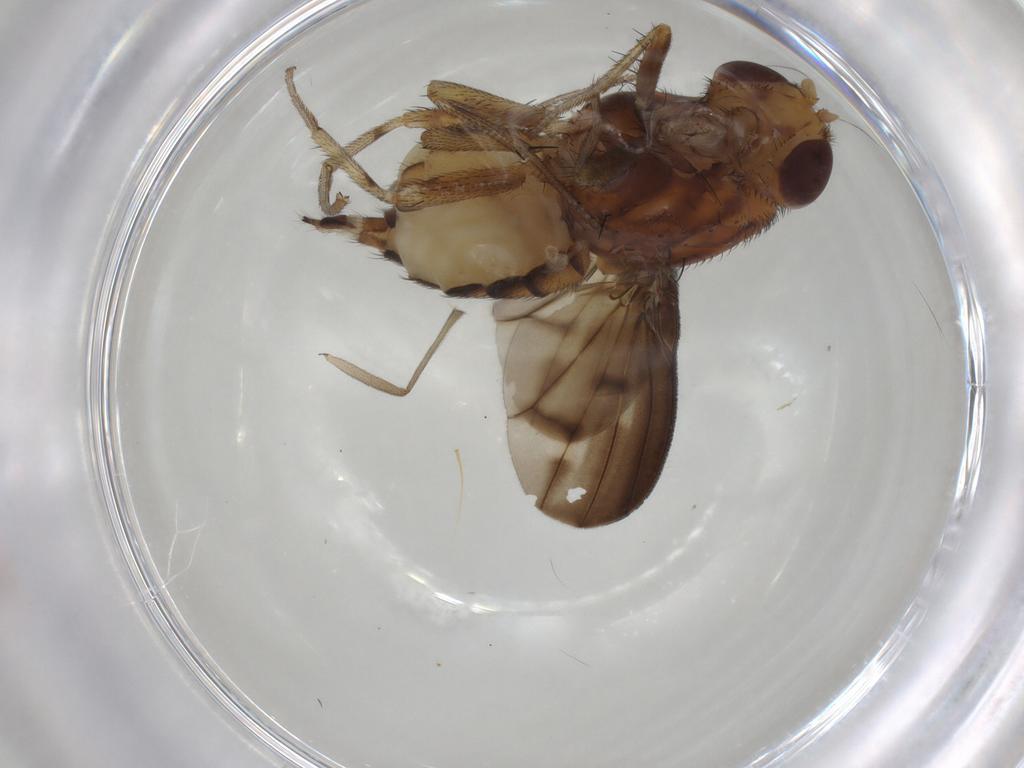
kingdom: Animalia
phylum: Arthropoda
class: Insecta
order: Diptera
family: Lauxaniidae
